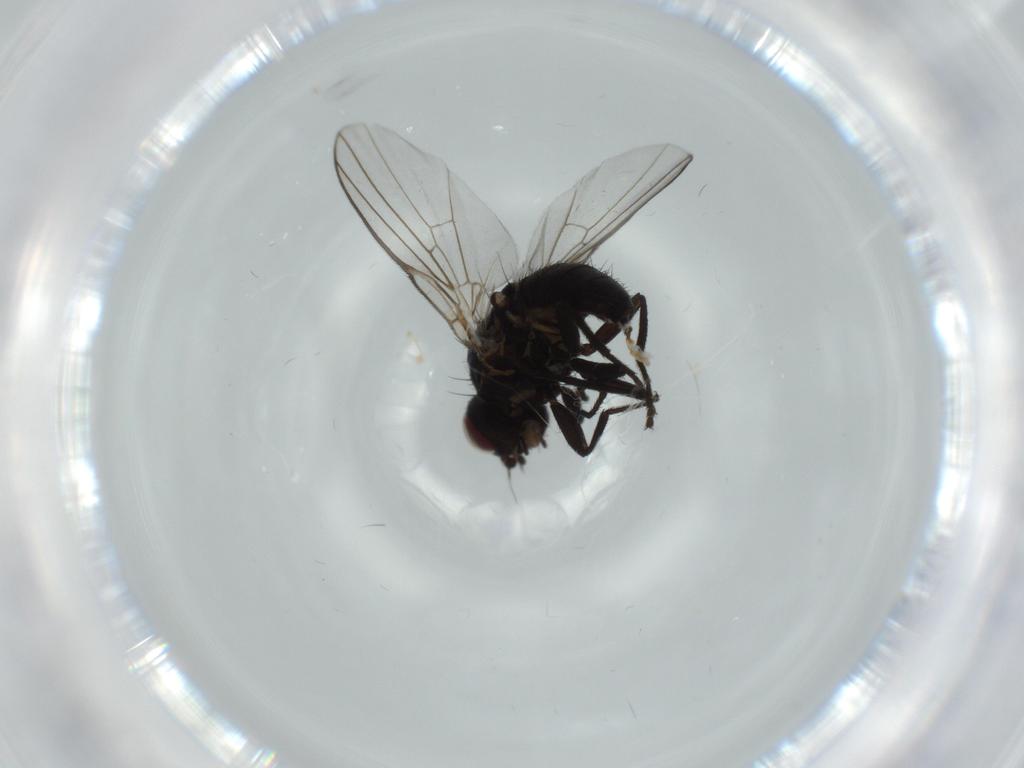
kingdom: Animalia
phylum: Arthropoda
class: Insecta
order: Diptera
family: Agromyzidae
